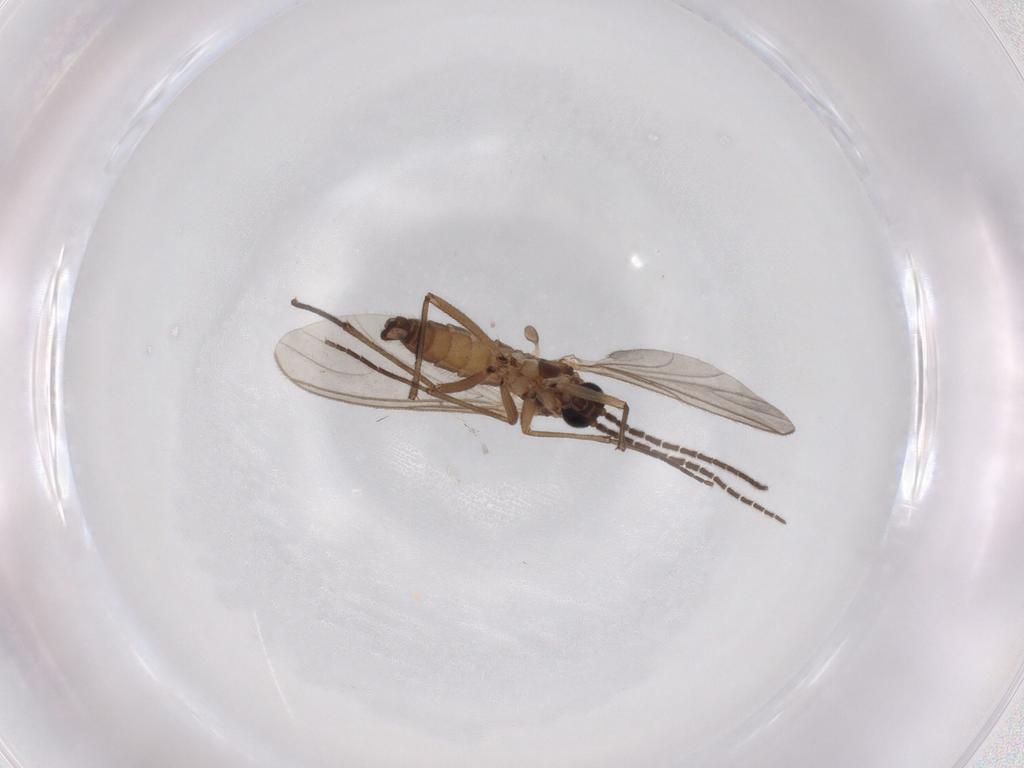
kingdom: Animalia
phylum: Arthropoda
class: Insecta
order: Diptera
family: Sciaridae
